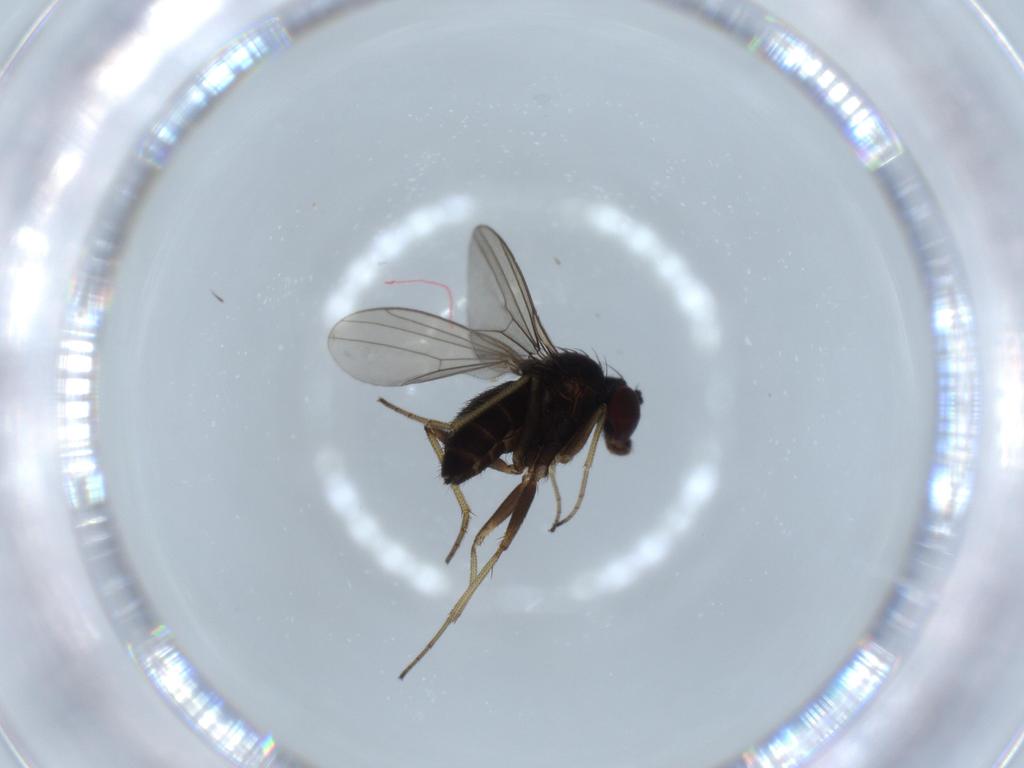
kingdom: Animalia
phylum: Arthropoda
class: Insecta
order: Diptera
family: Dolichopodidae
